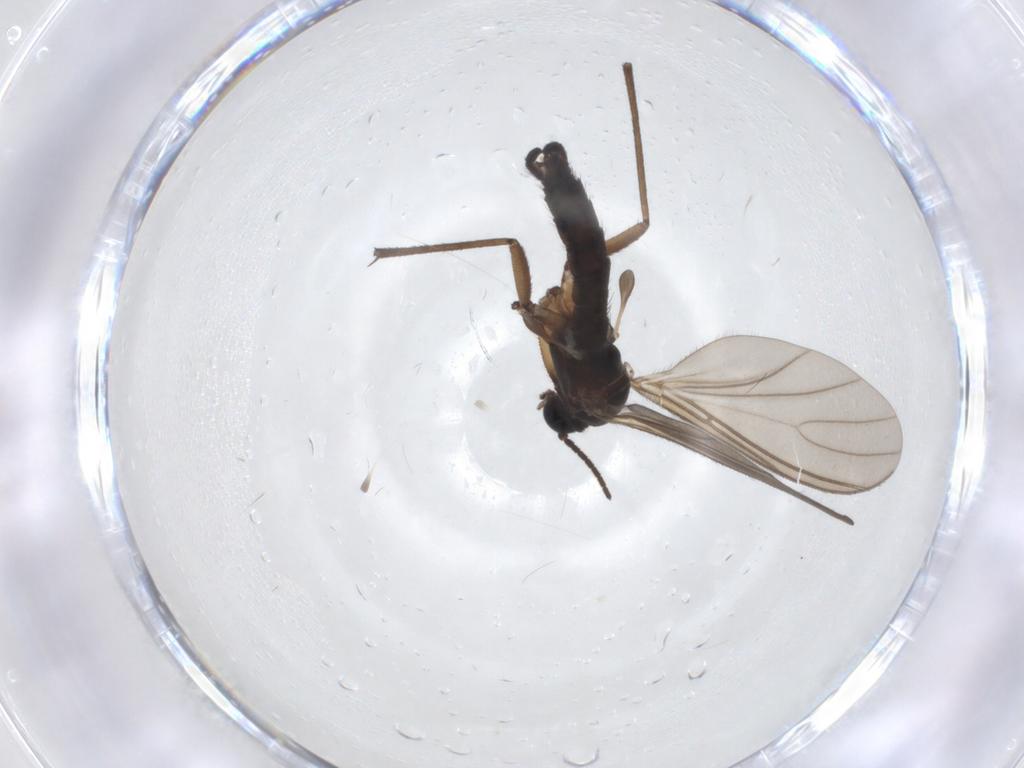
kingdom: Animalia
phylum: Arthropoda
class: Insecta
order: Diptera
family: Sciaridae
